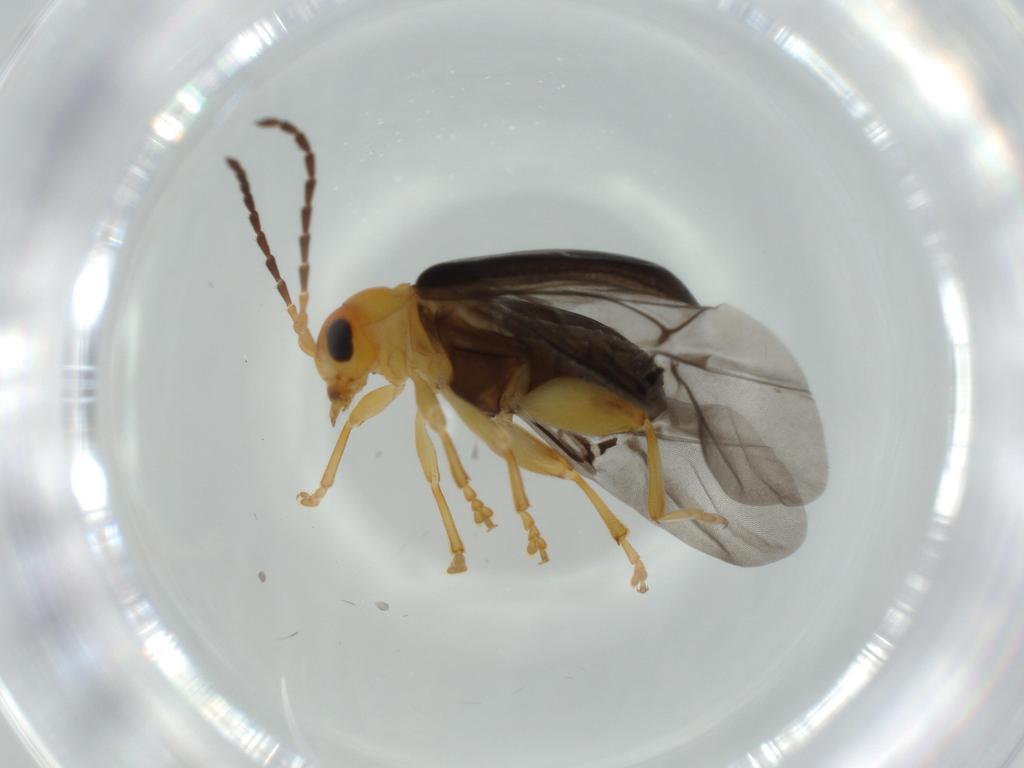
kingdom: Animalia
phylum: Arthropoda
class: Insecta
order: Coleoptera
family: Chrysomelidae
